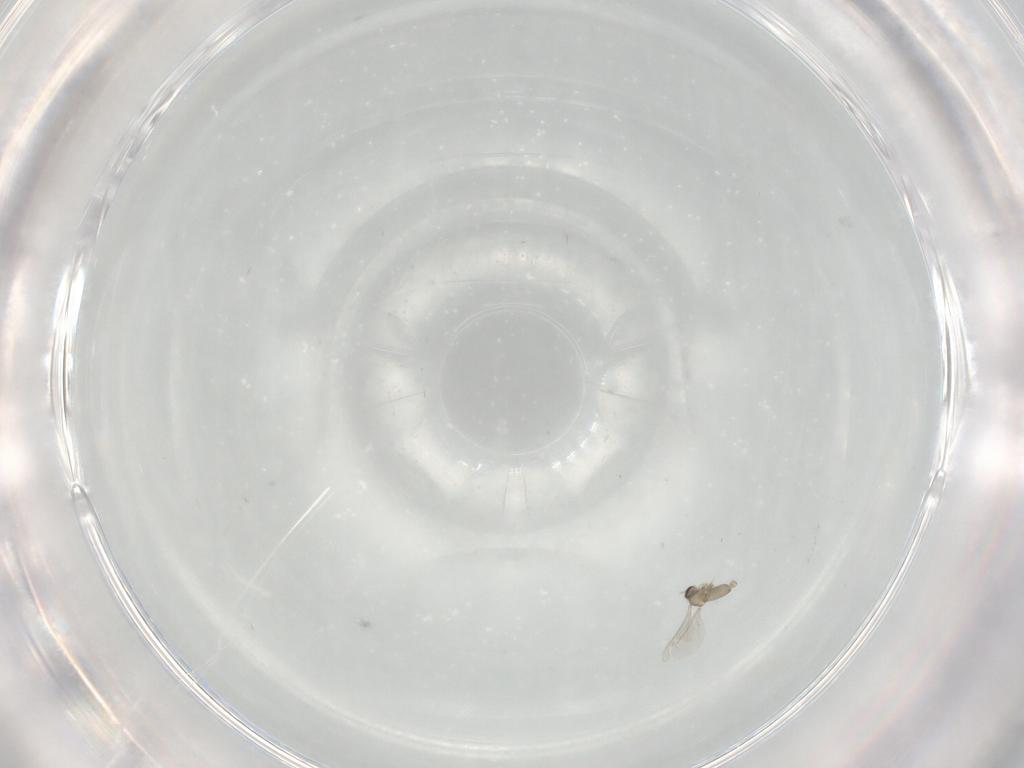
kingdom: Animalia
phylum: Arthropoda
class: Insecta
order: Diptera
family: Cecidomyiidae
